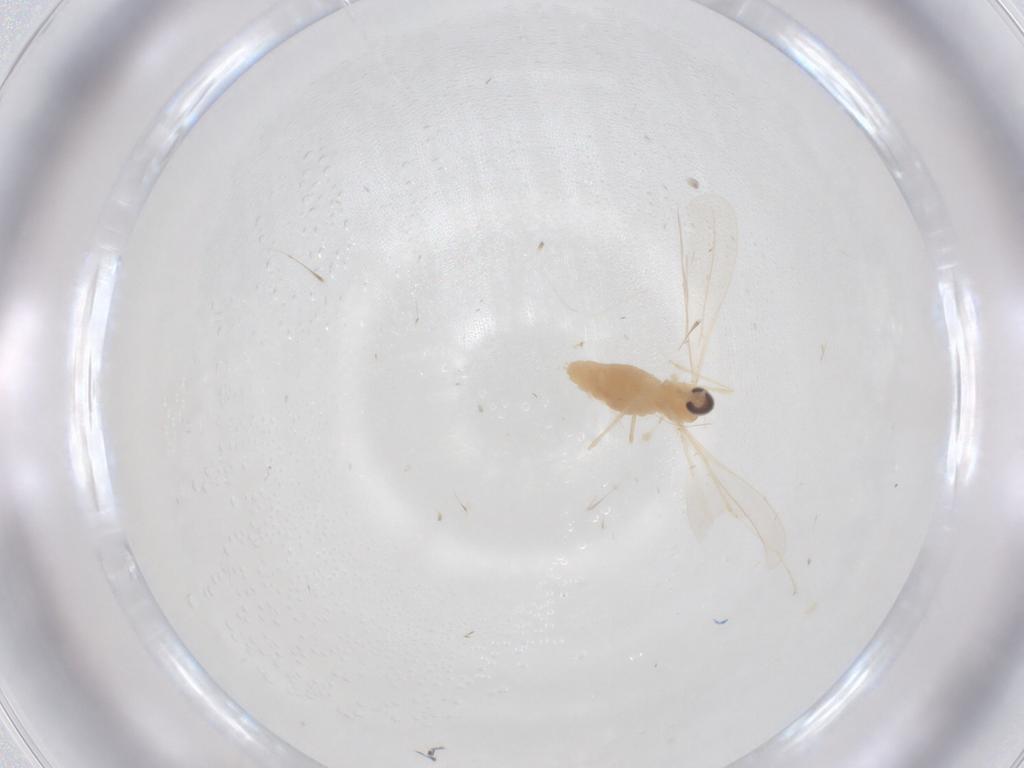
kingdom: Animalia
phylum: Arthropoda
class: Insecta
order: Diptera
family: Cecidomyiidae
